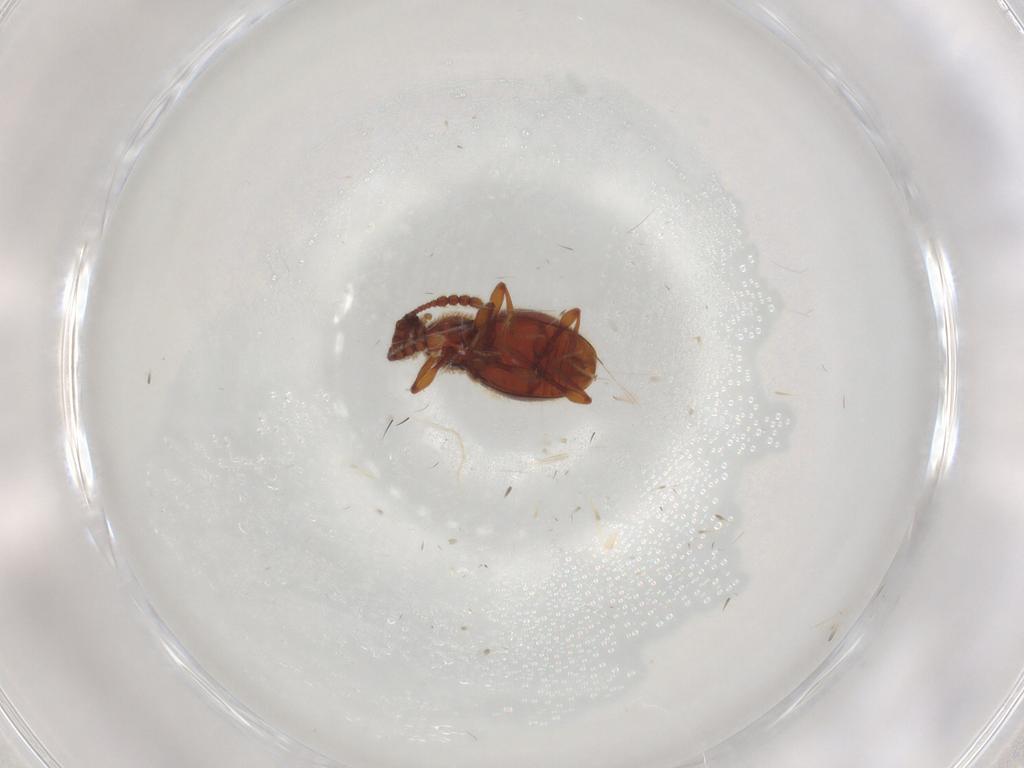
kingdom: Animalia
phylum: Arthropoda
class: Insecta
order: Coleoptera
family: Staphylinidae
